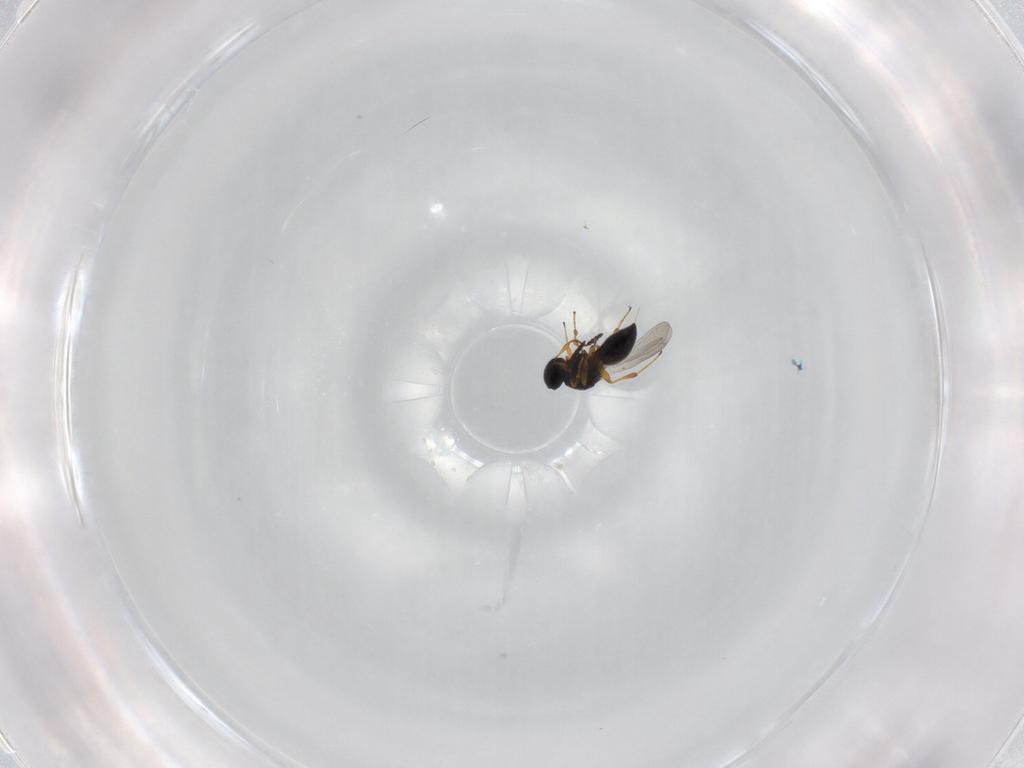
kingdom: Animalia
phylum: Arthropoda
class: Insecta
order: Hymenoptera
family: Platygastridae
